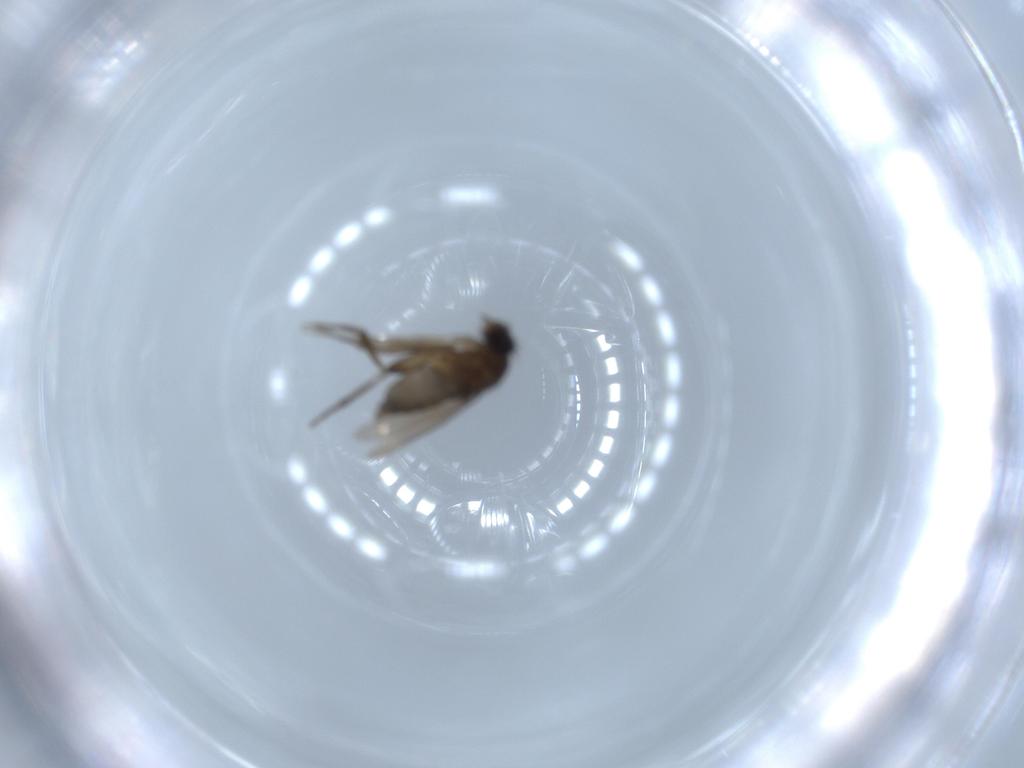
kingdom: Animalia
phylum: Arthropoda
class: Insecta
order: Diptera
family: Phoridae
